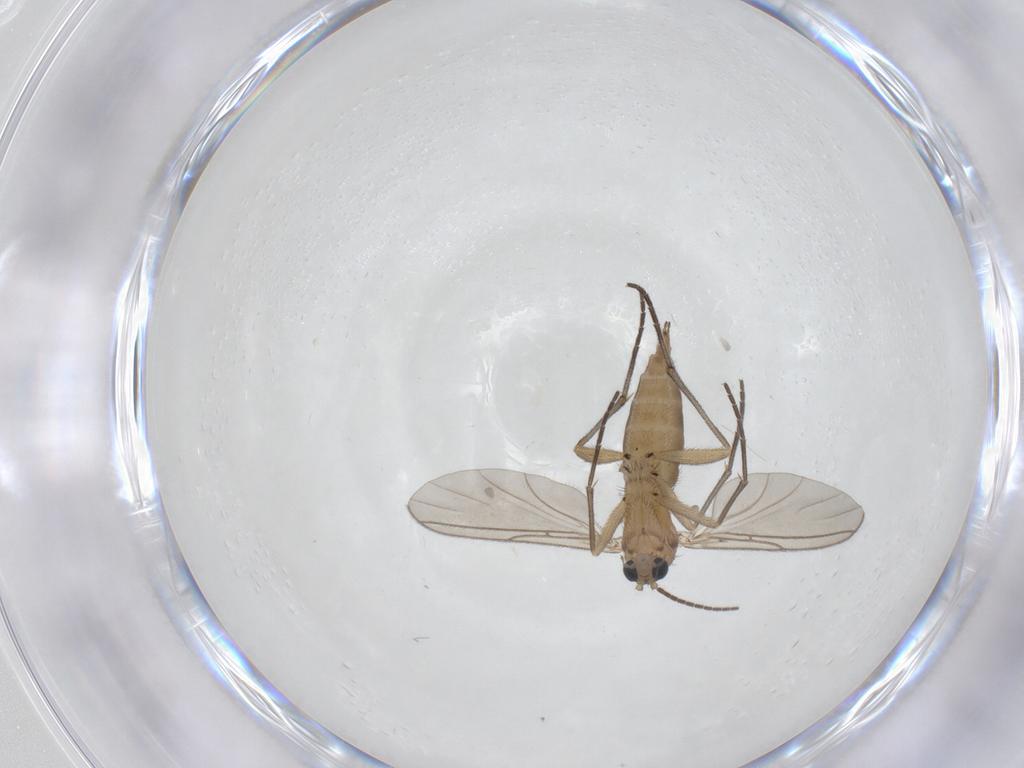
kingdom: Animalia
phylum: Arthropoda
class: Insecta
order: Diptera
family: Sciaridae
